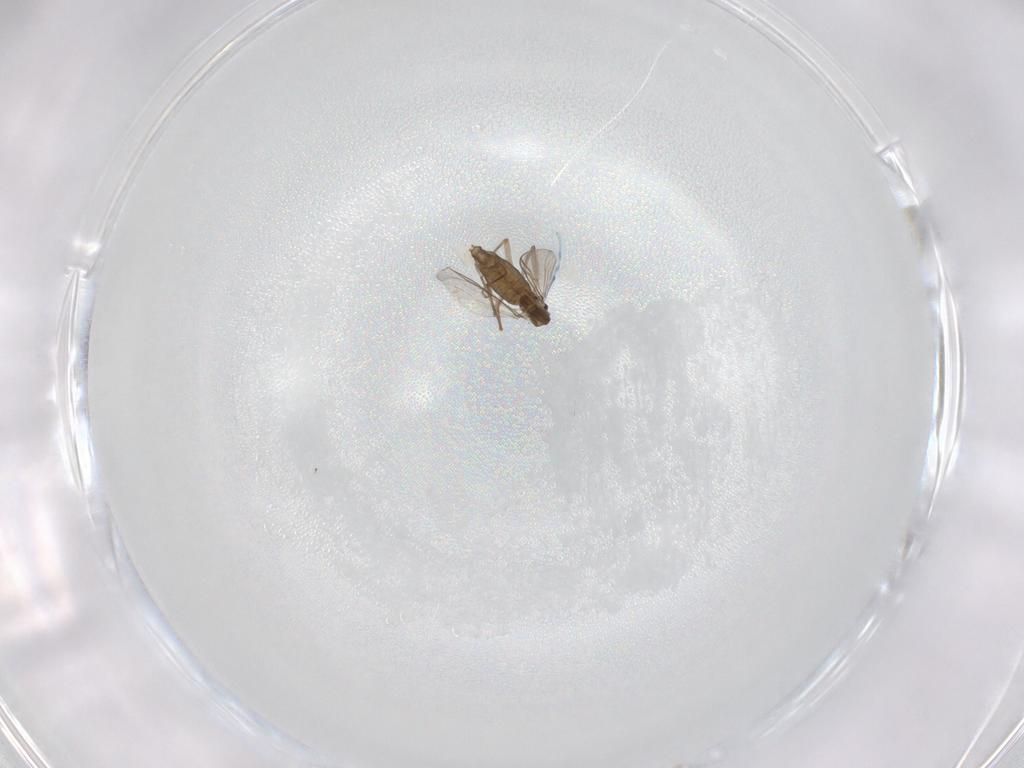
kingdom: Animalia
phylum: Arthropoda
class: Insecta
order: Diptera
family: Chironomidae
